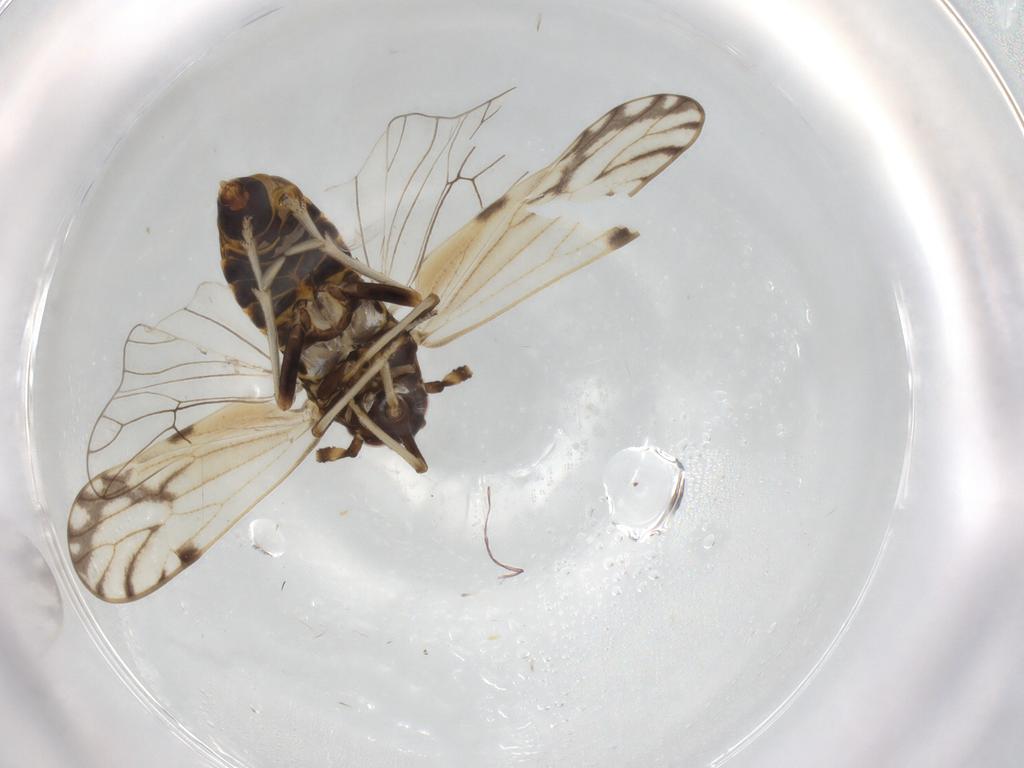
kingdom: Animalia
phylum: Arthropoda
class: Insecta
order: Hemiptera
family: Delphacidae
